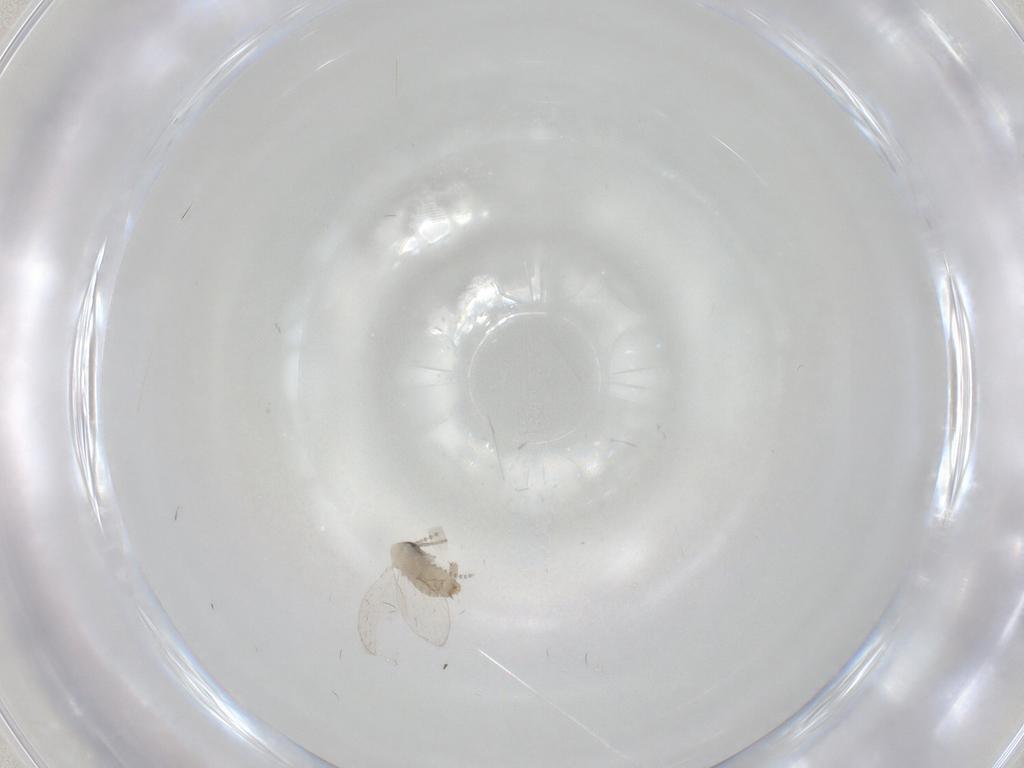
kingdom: Animalia
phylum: Arthropoda
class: Insecta
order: Diptera
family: Psychodidae
